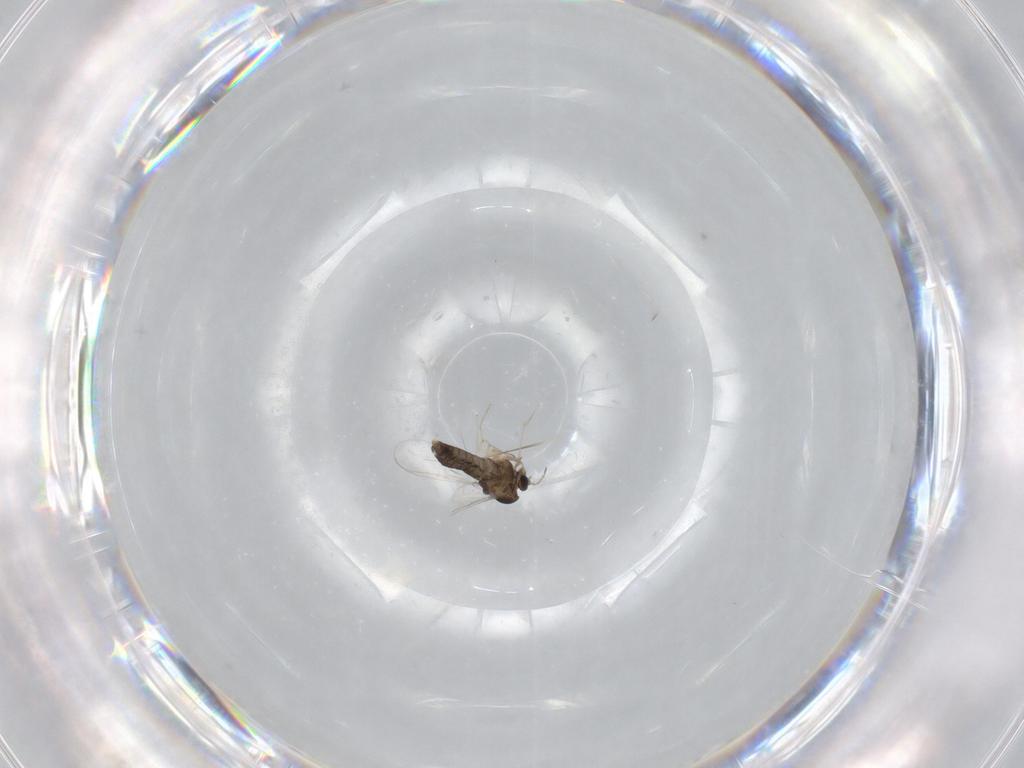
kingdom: Animalia
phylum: Arthropoda
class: Insecta
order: Diptera
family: Chironomidae
